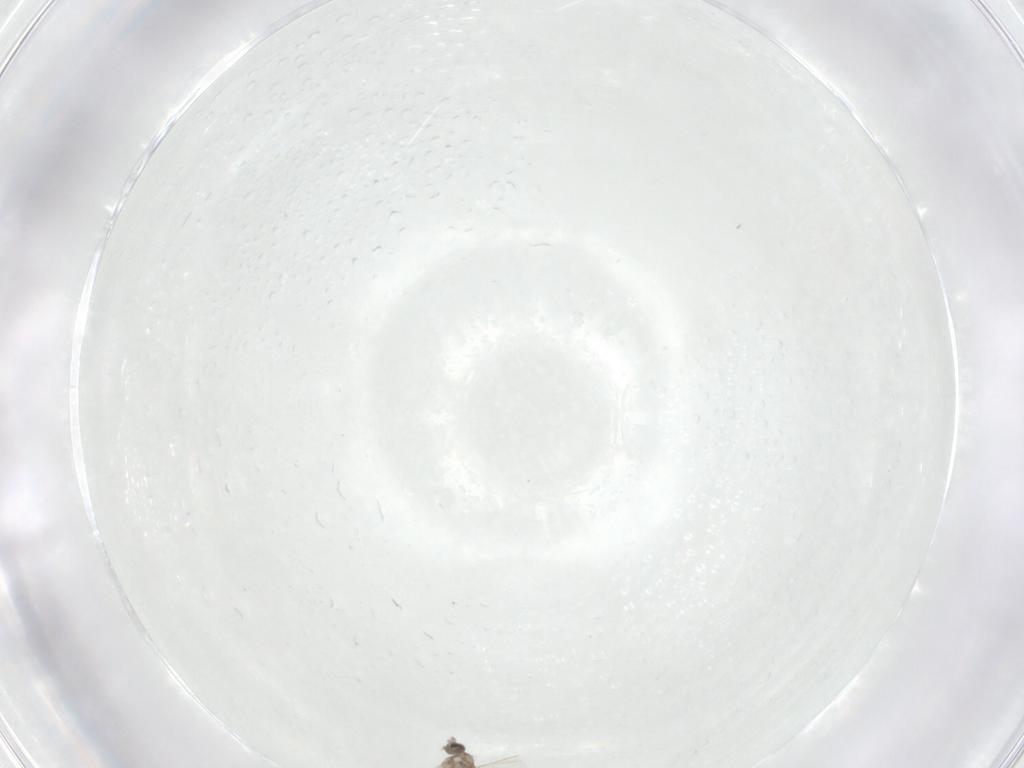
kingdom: Animalia
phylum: Arthropoda
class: Insecta
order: Diptera
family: Cecidomyiidae
